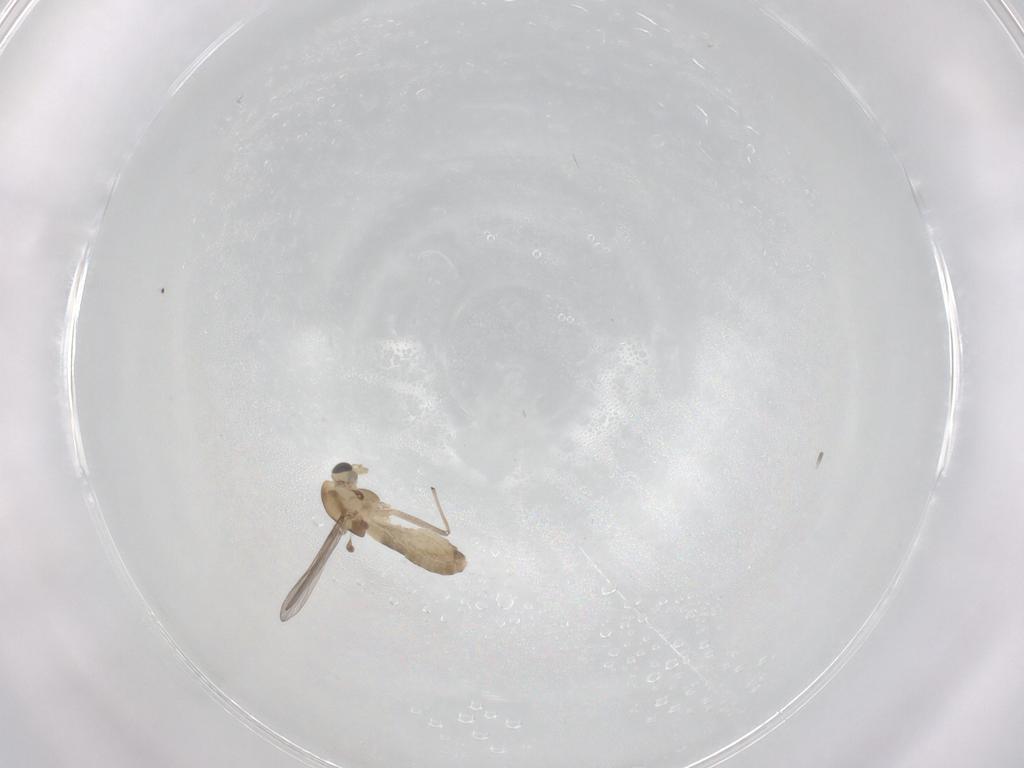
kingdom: Animalia
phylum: Arthropoda
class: Insecta
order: Diptera
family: Chironomidae
